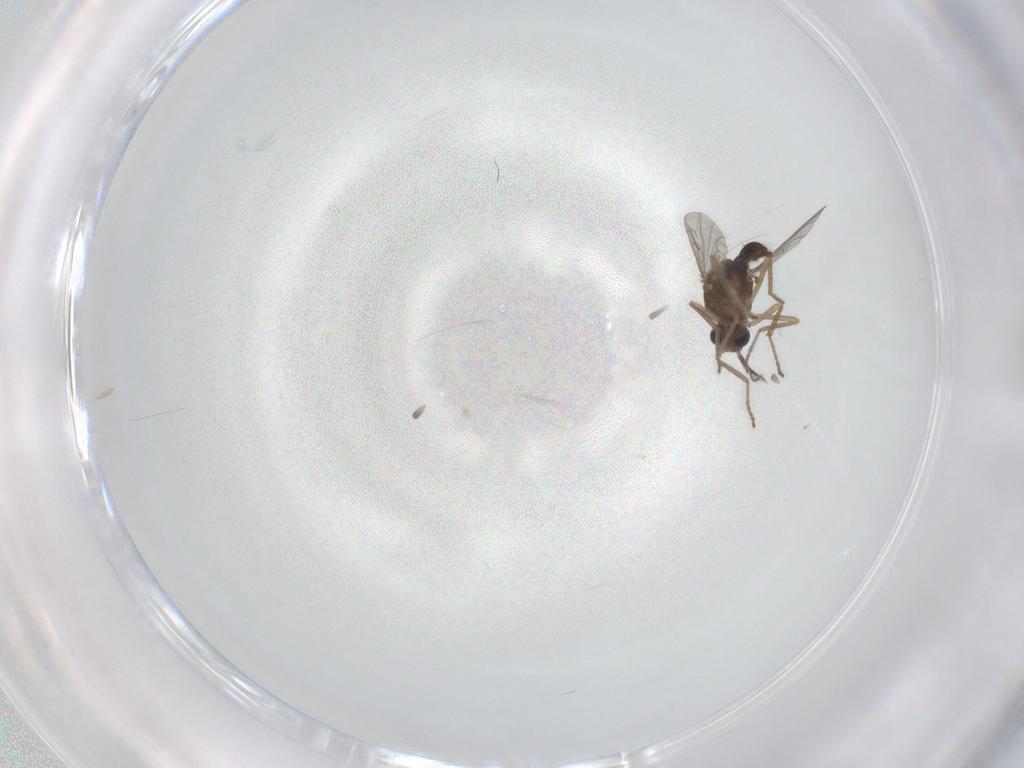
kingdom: Animalia
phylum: Arthropoda
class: Insecta
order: Diptera
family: Ceratopogonidae
